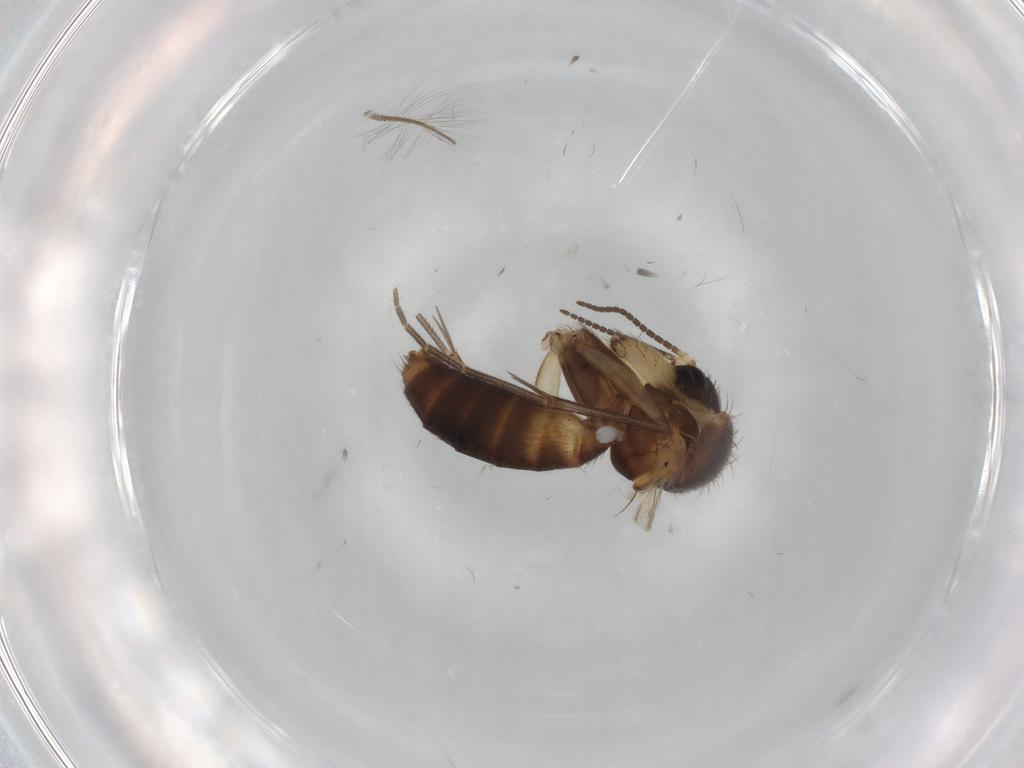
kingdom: Animalia
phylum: Arthropoda
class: Insecta
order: Diptera
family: Mycetophilidae
